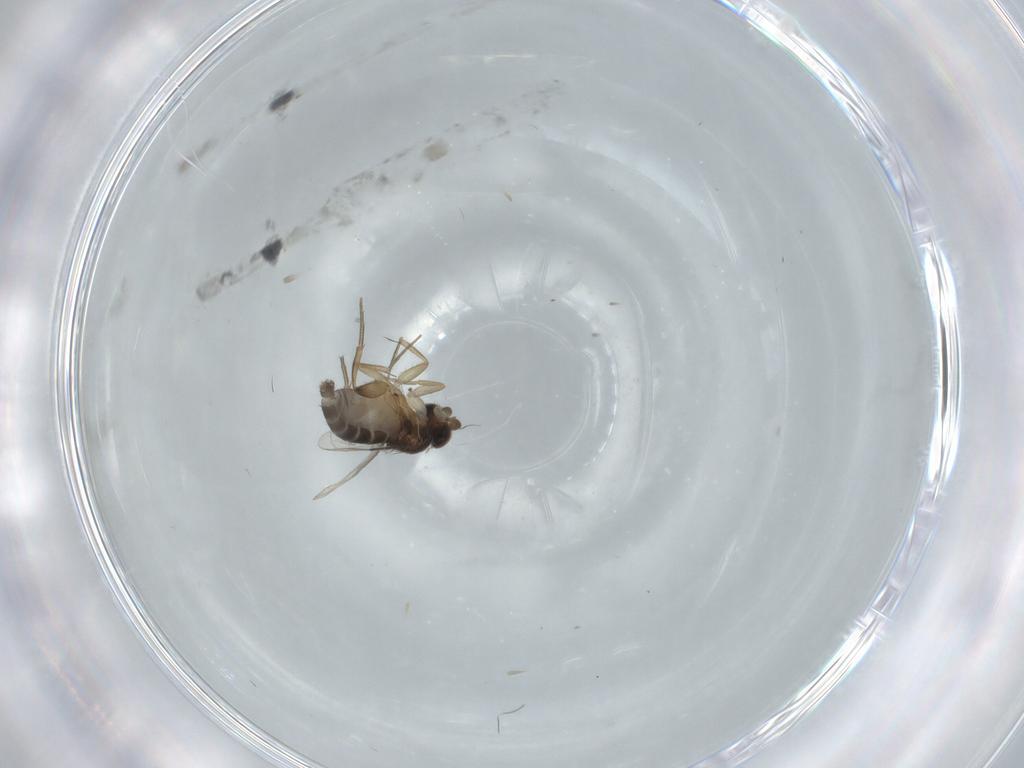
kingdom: Animalia
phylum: Arthropoda
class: Insecta
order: Diptera
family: Phoridae
